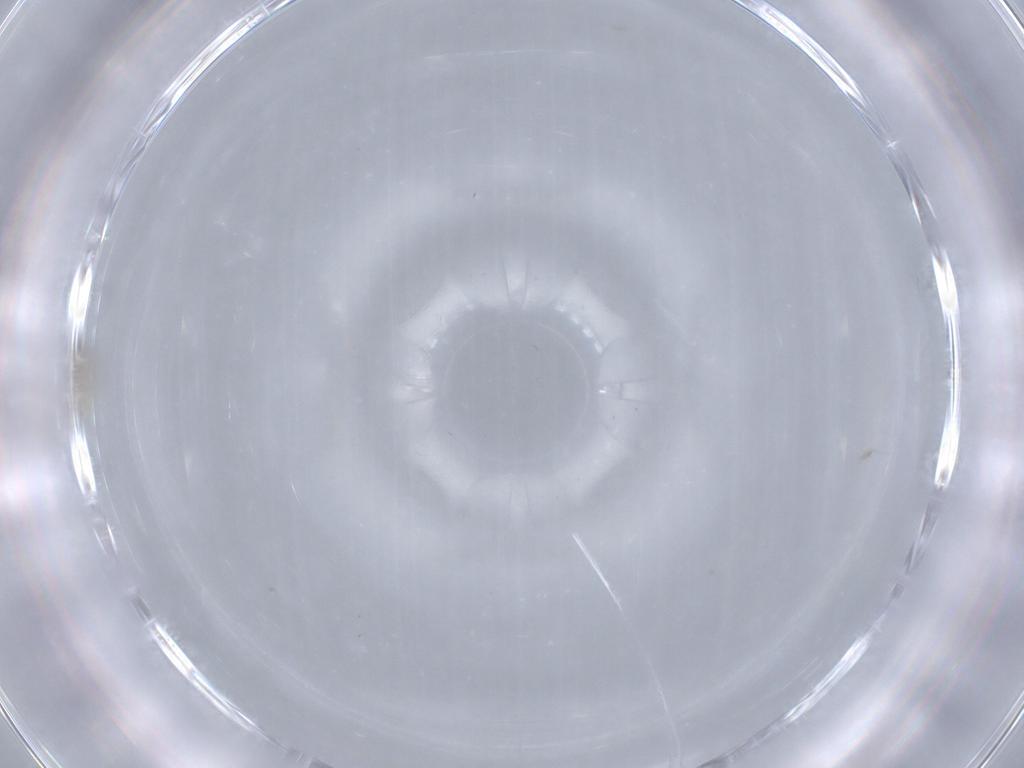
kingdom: Animalia
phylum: Arthropoda
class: Insecta
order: Diptera
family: Cecidomyiidae
